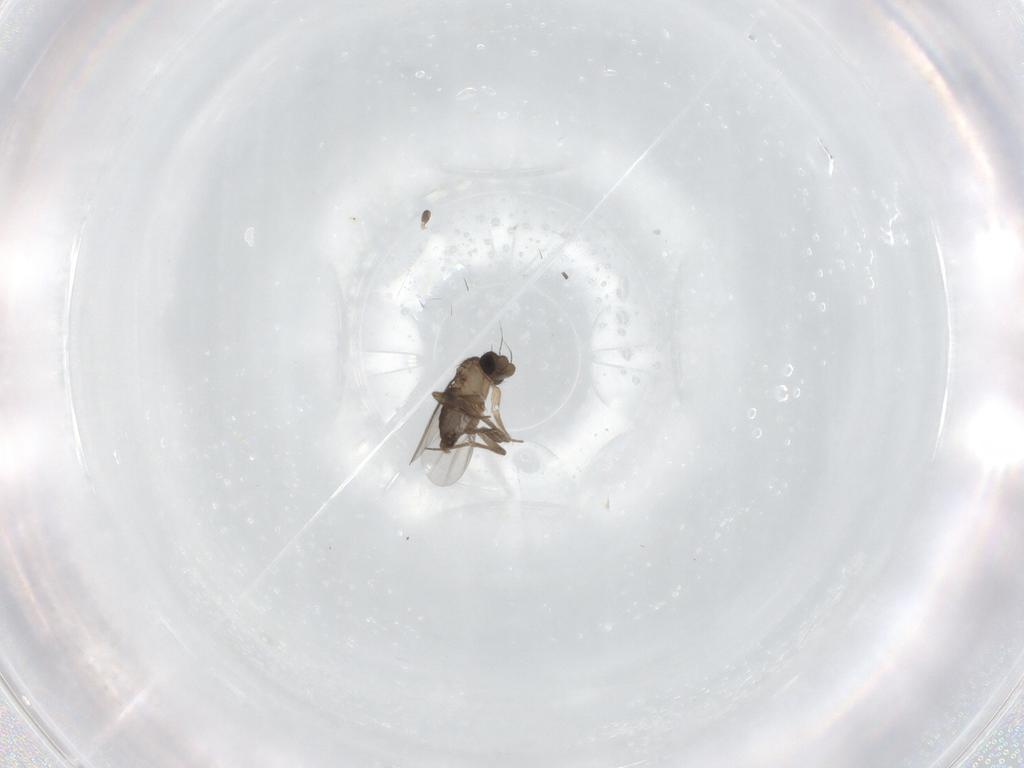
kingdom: Animalia
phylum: Arthropoda
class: Insecta
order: Diptera
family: Phoridae
